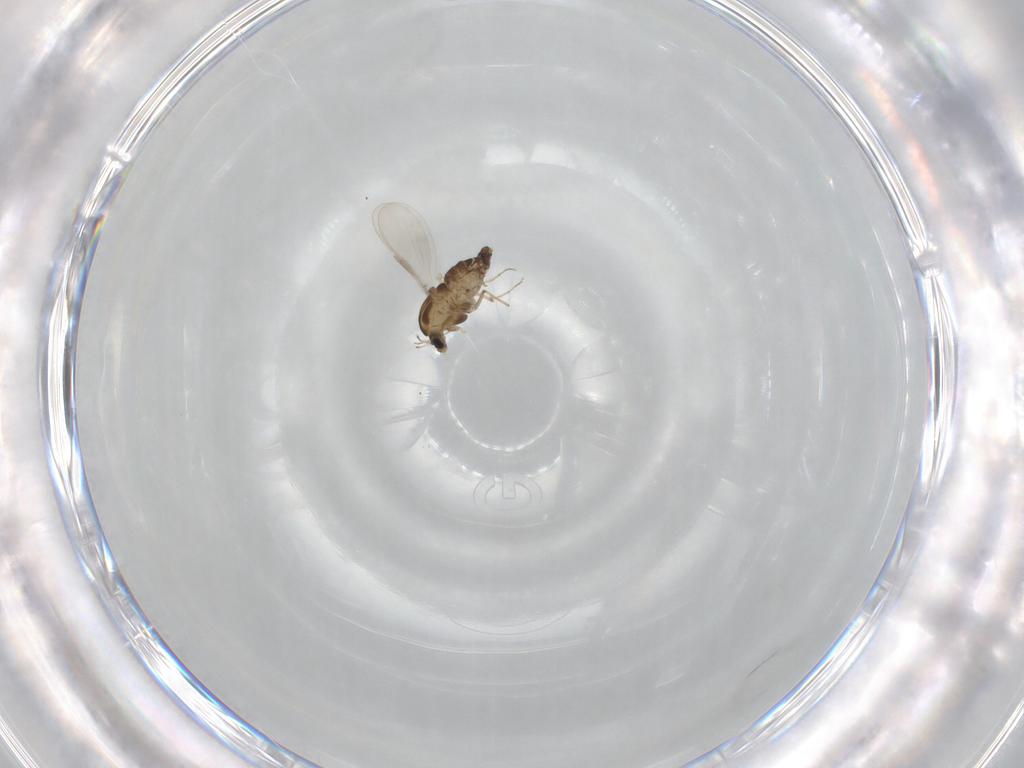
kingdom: Animalia
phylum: Arthropoda
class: Insecta
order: Diptera
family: Chironomidae
